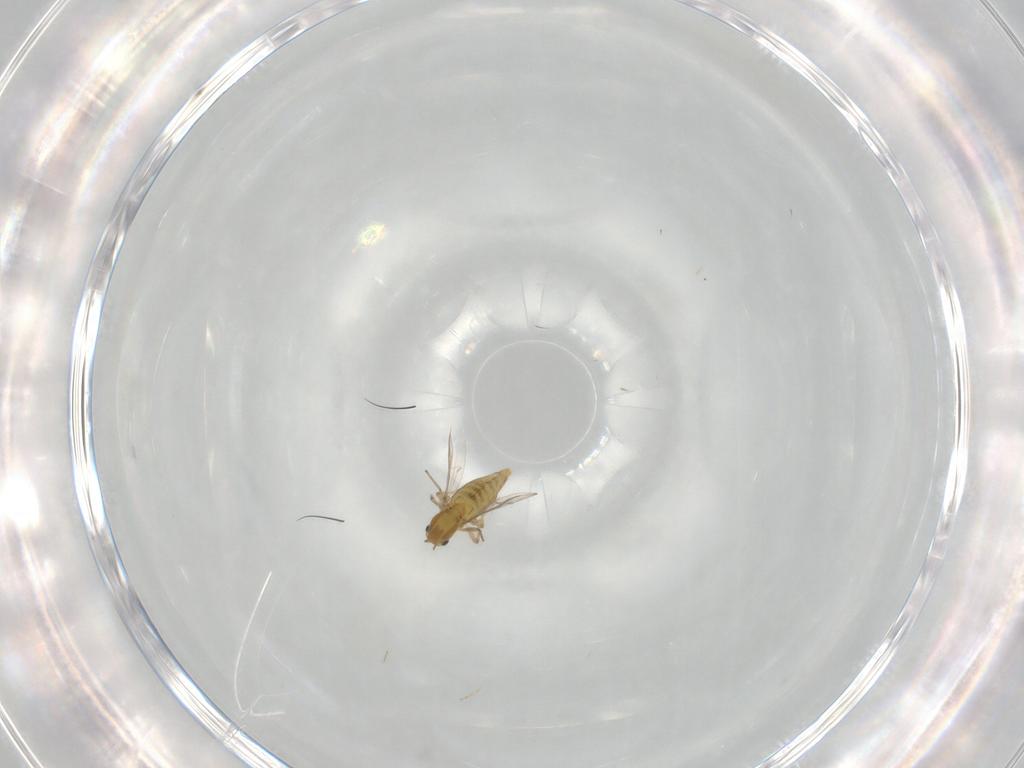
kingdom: Animalia
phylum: Arthropoda
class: Insecta
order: Diptera
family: Chironomidae
